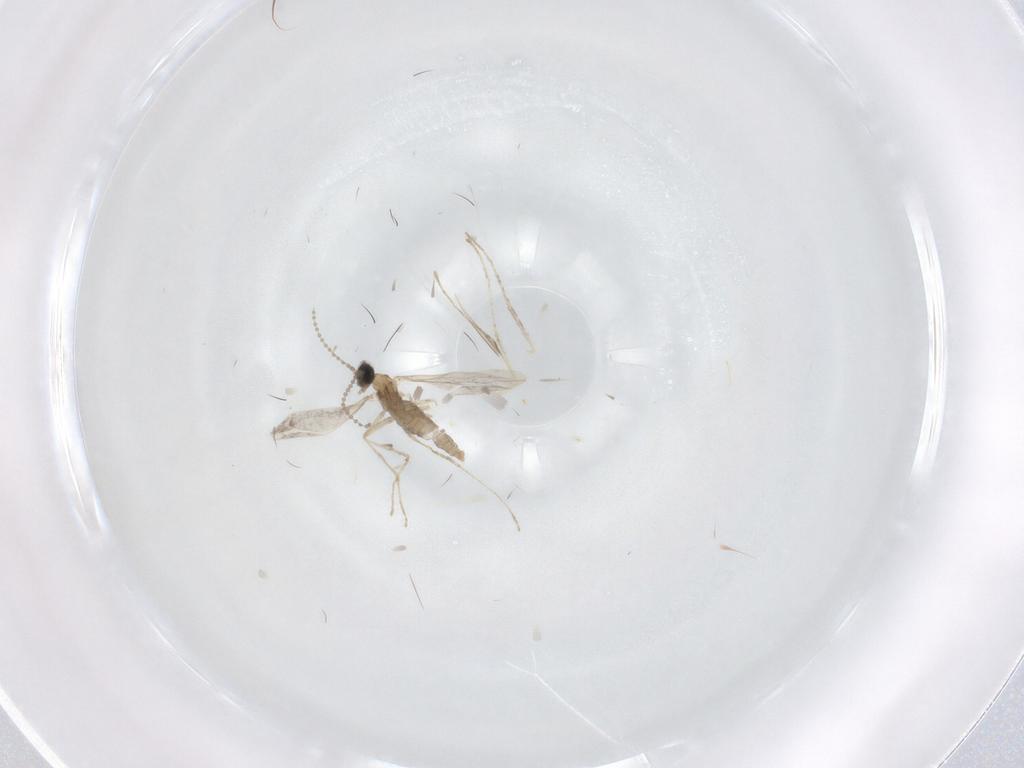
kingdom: Animalia
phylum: Arthropoda
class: Insecta
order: Diptera
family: Cecidomyiidae
